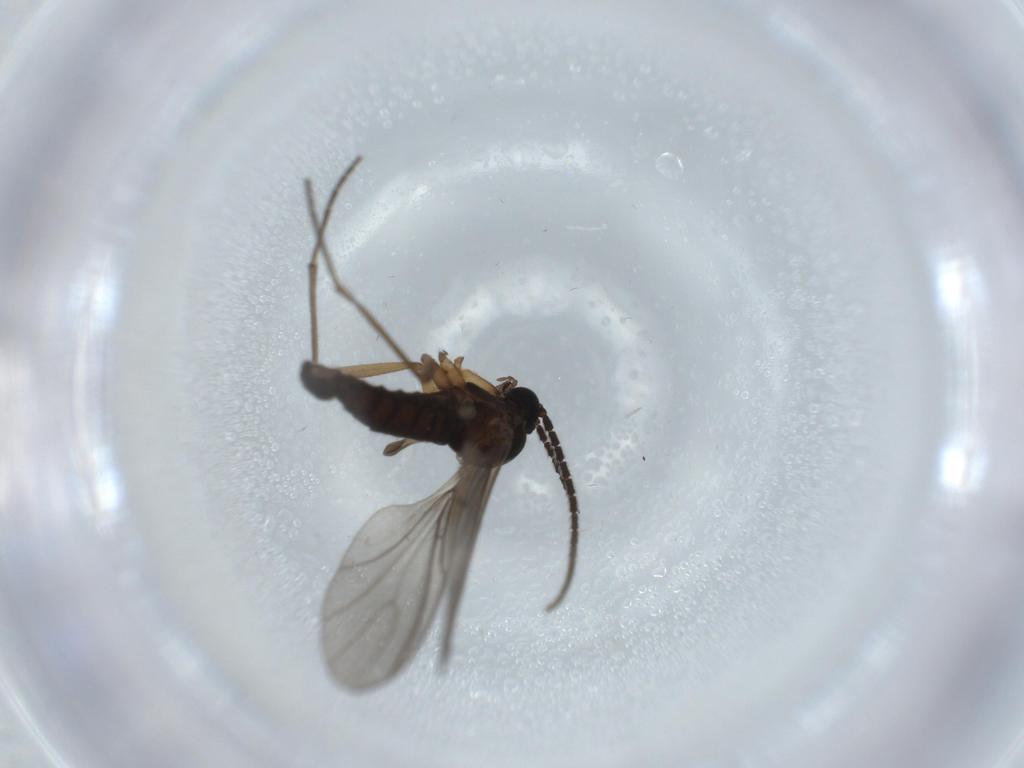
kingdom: Animalia
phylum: Arthropoda
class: Insecta
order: Diptera
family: Sciaridae
